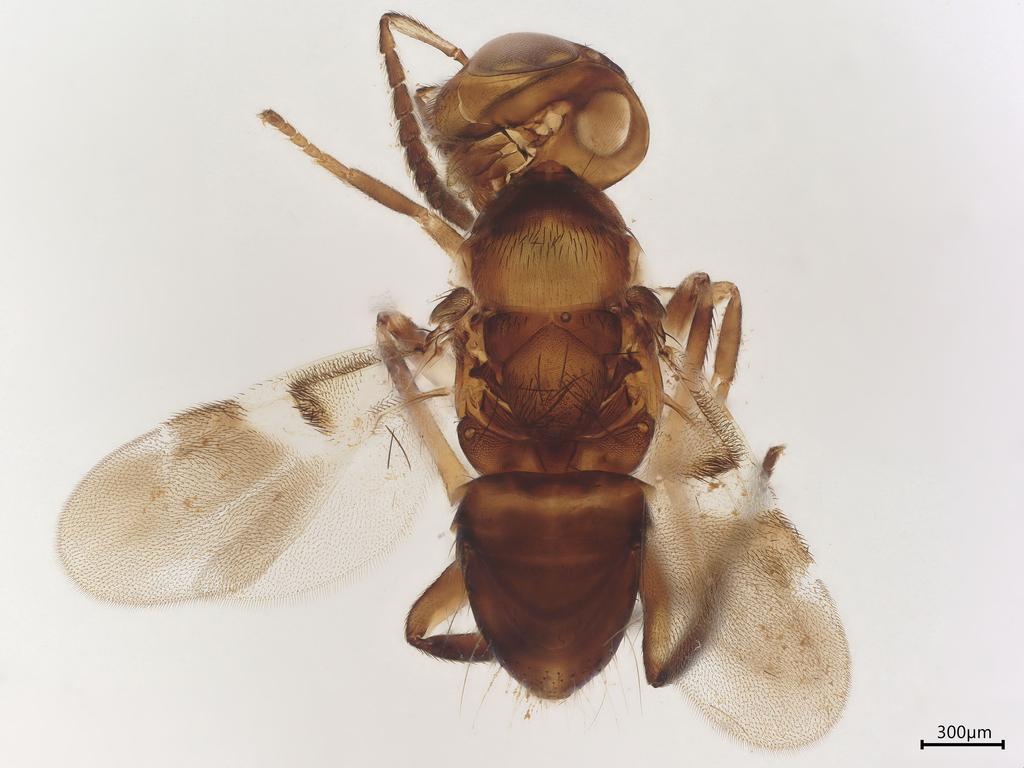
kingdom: Animalia
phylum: Arthropoda
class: Insecta
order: Hymenoptera
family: Encyrtidae
